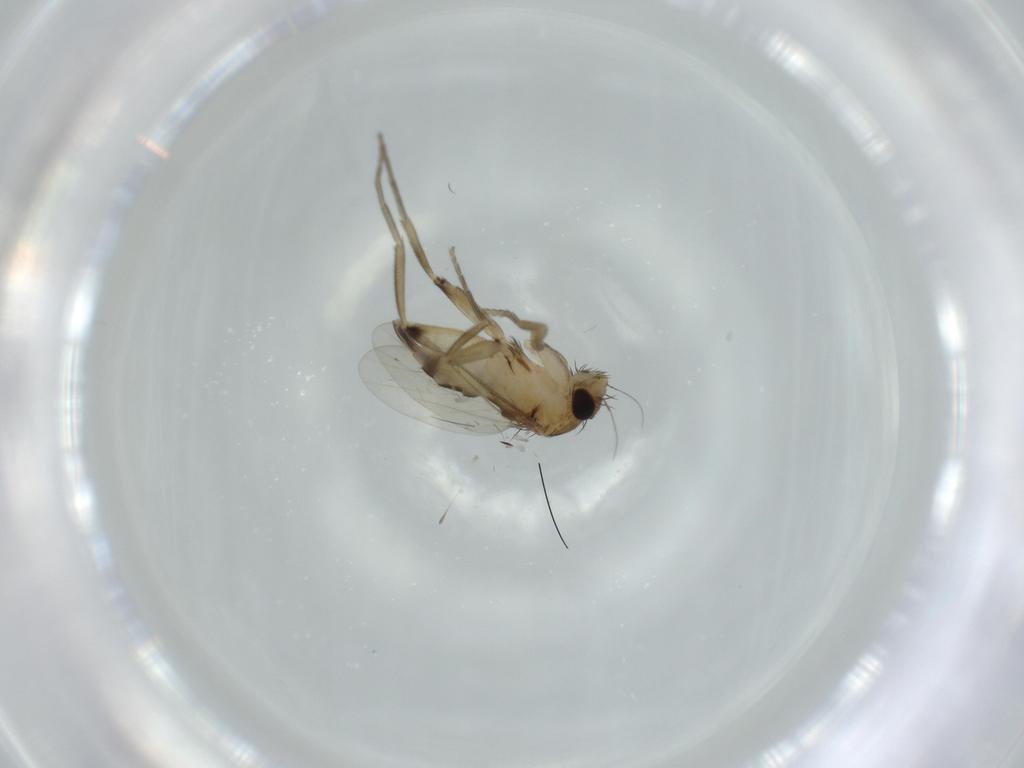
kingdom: Animalia
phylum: Arthropoda
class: Insecta
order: Diptera
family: Phoridae
